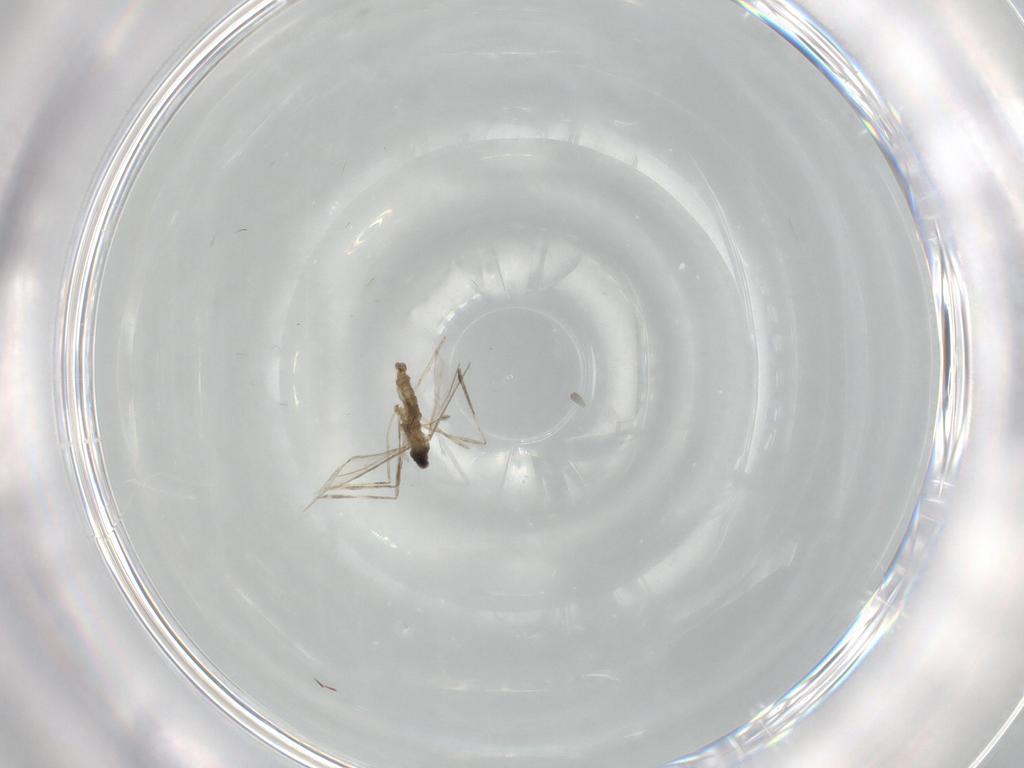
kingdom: Animalia
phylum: Arthropoda
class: Insecta
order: Diptera
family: Cecidomyiidae
